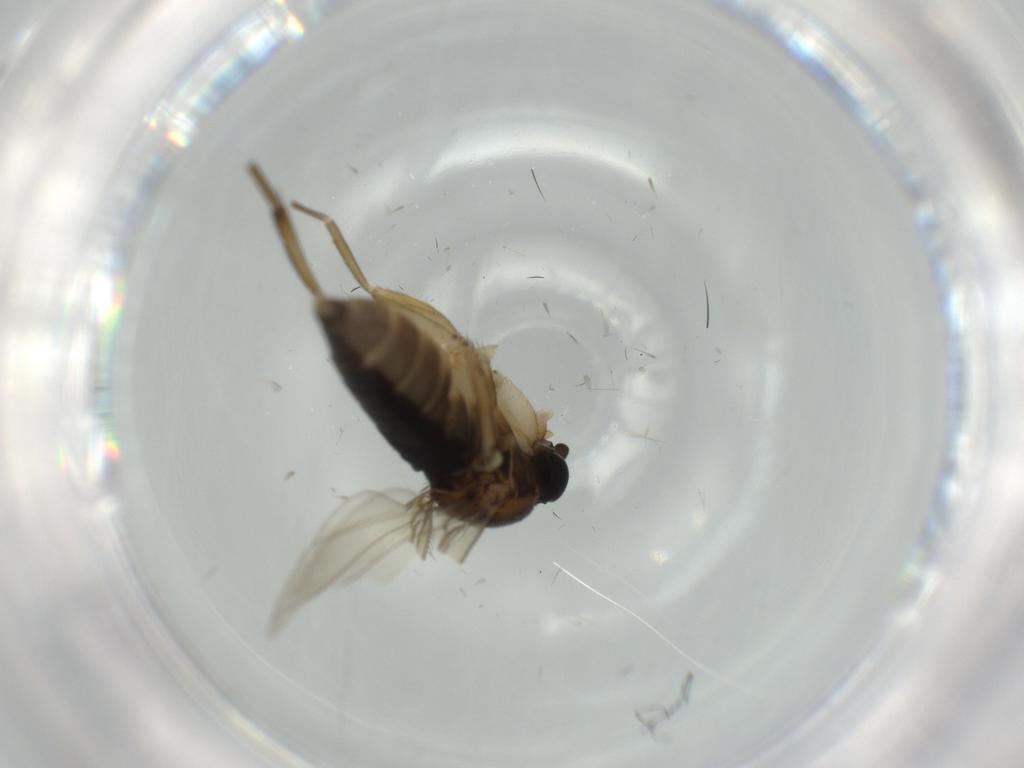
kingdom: Animalia
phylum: Arthropoda
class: Insecta
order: Diptera
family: Phoridae
